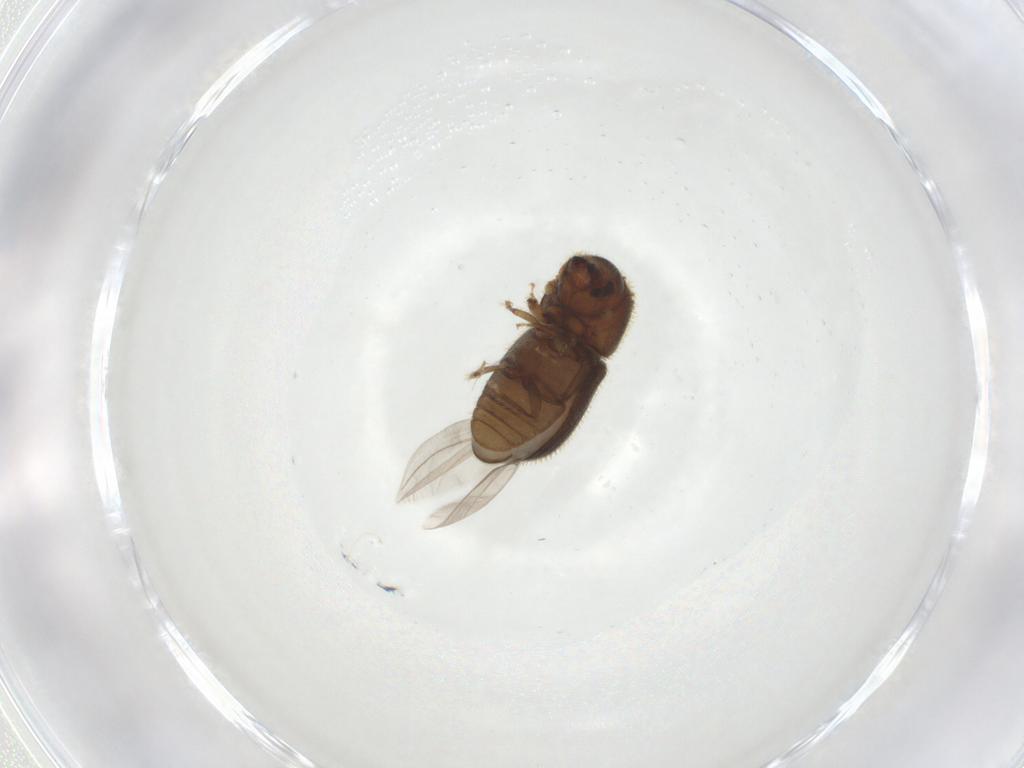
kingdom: Animalia
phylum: Arthropoda
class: Insecta
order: Coleoptera
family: Curculionidae
